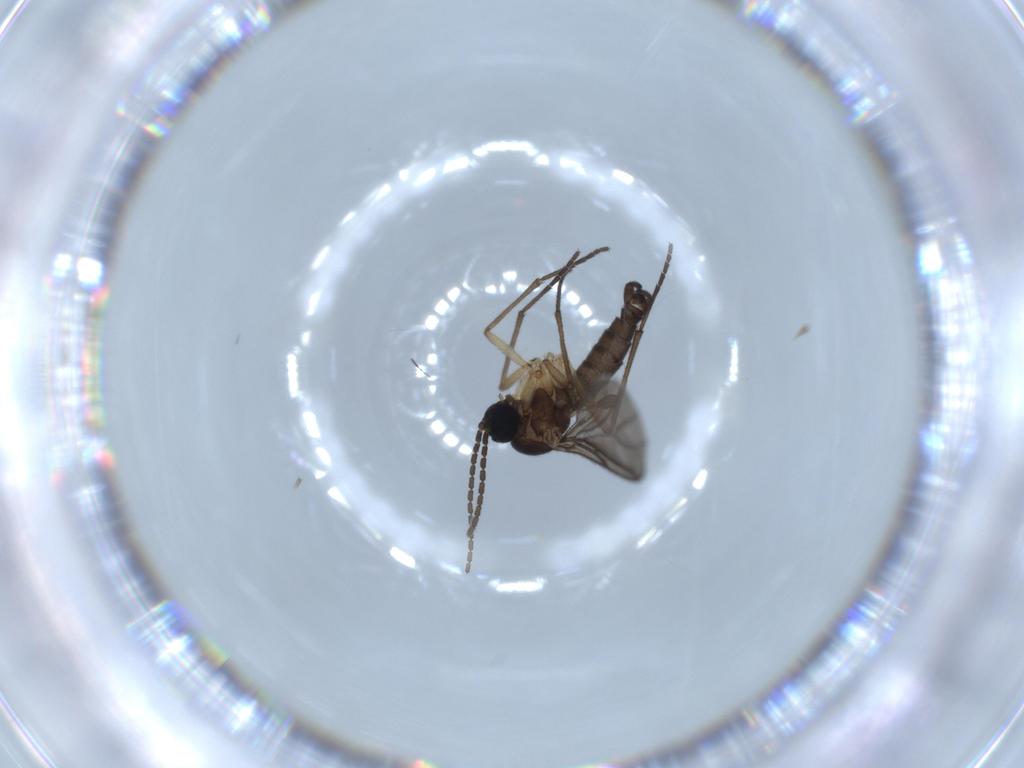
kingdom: Animalia
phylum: Arthropoda
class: Insecta
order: Diptera
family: Sciaridae
